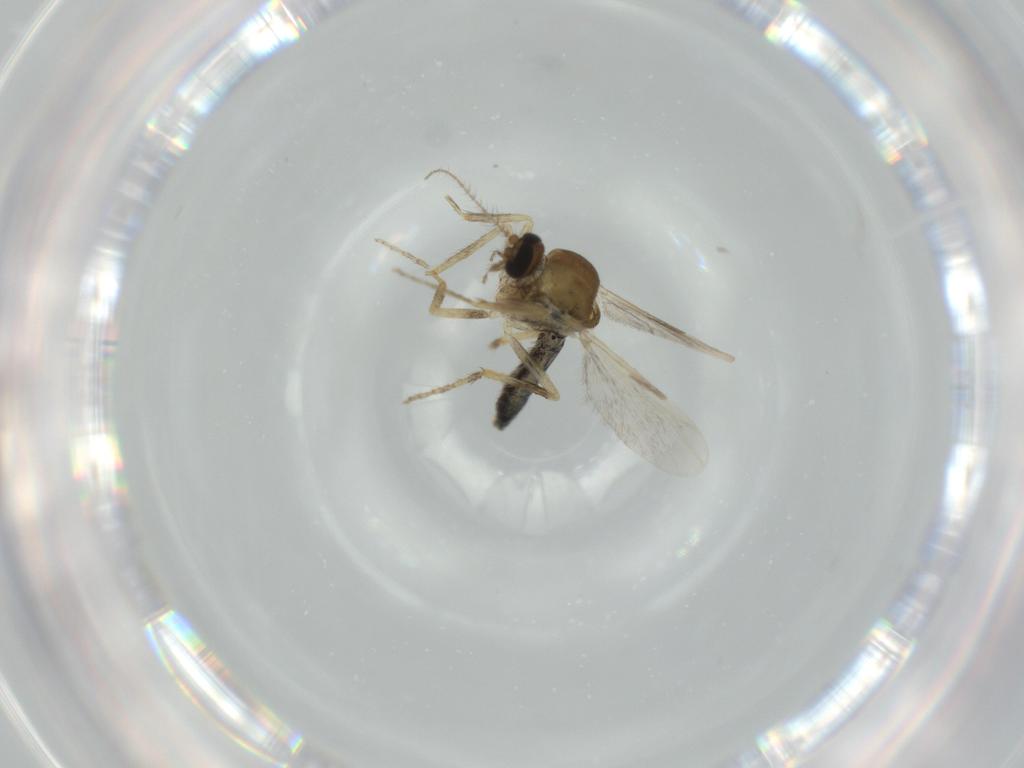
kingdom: Animalia
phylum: Arthropoda
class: Insecta
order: Diptera
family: Ceratopogonidae
